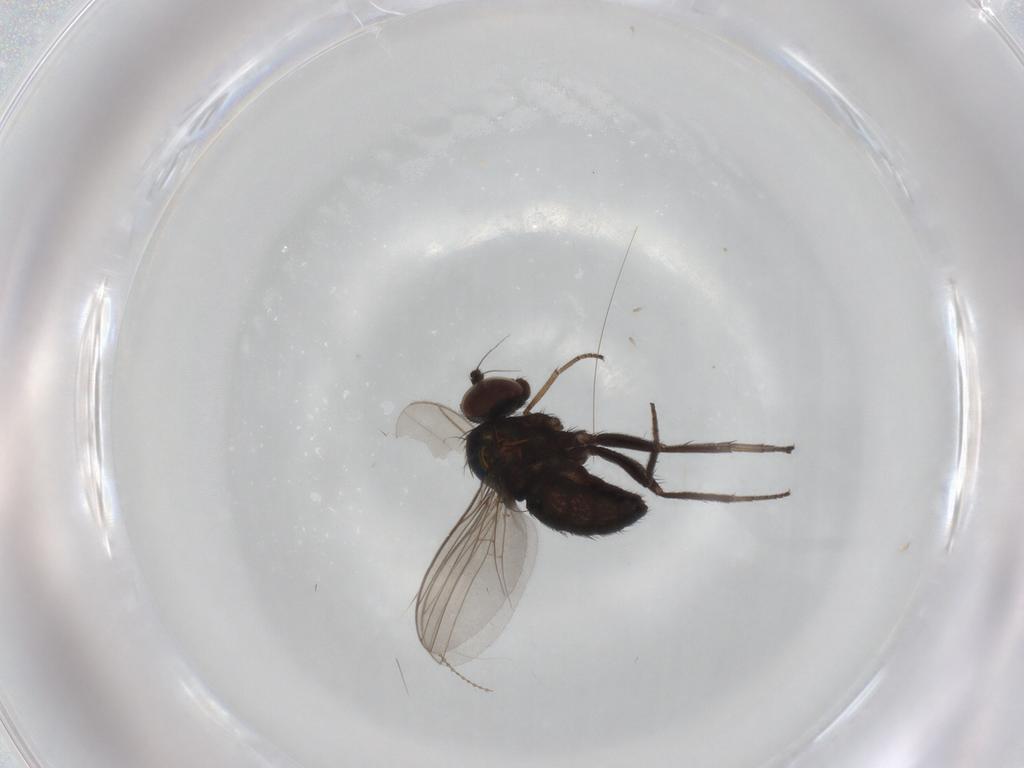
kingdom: Animalia
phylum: Arthropoda
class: Insecta
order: Diptera
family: Dolichopodidae
